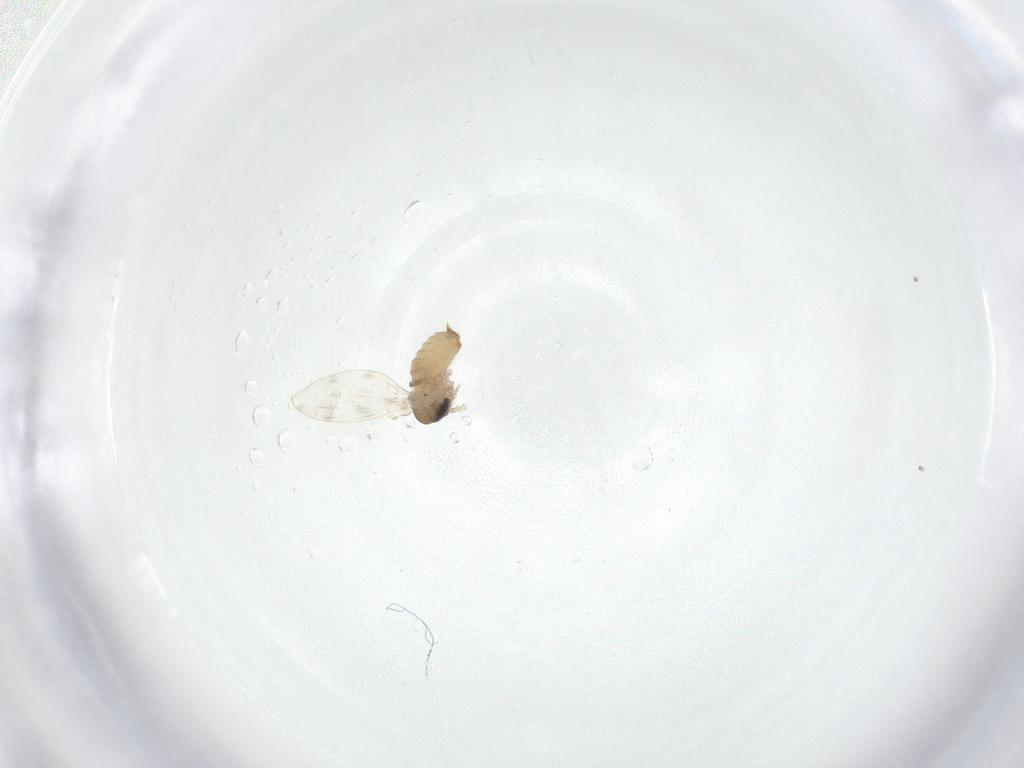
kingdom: Animalia
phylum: Arthropoda
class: Insecta
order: Diptera
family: Psychodidae
